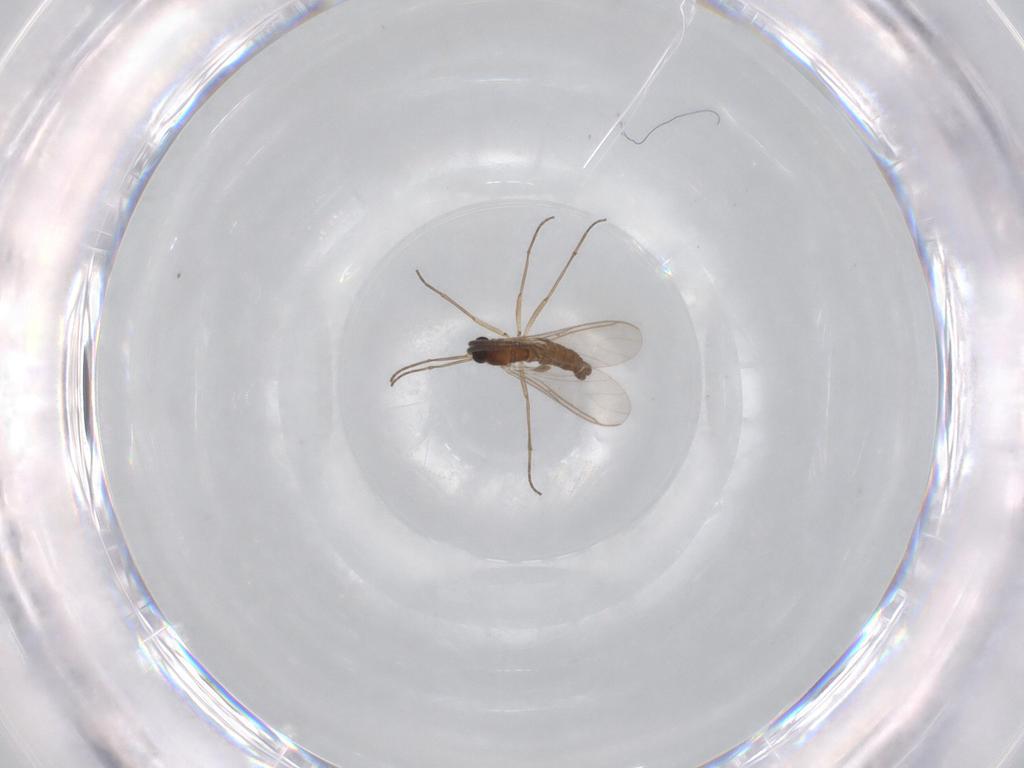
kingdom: Animalia
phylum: Arthropoda
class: Insecta
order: Diptera
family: Sciaridae
